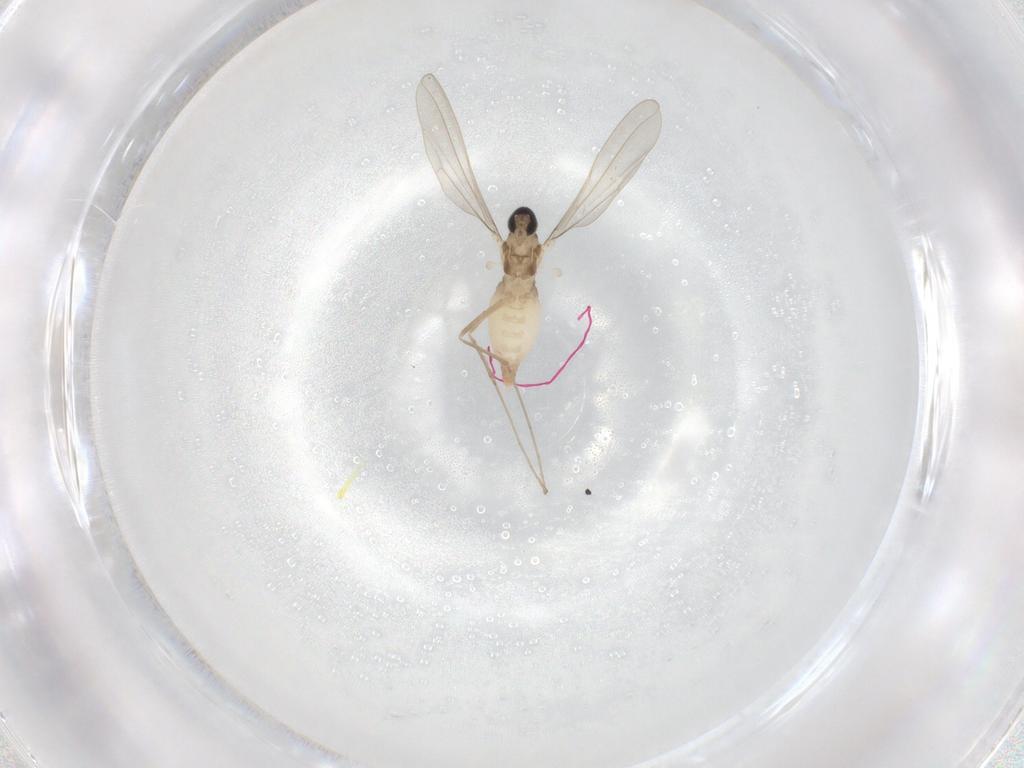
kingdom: Animalia
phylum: Arthropoda
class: Insecta
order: Diptera
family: Cecidomyiidae
